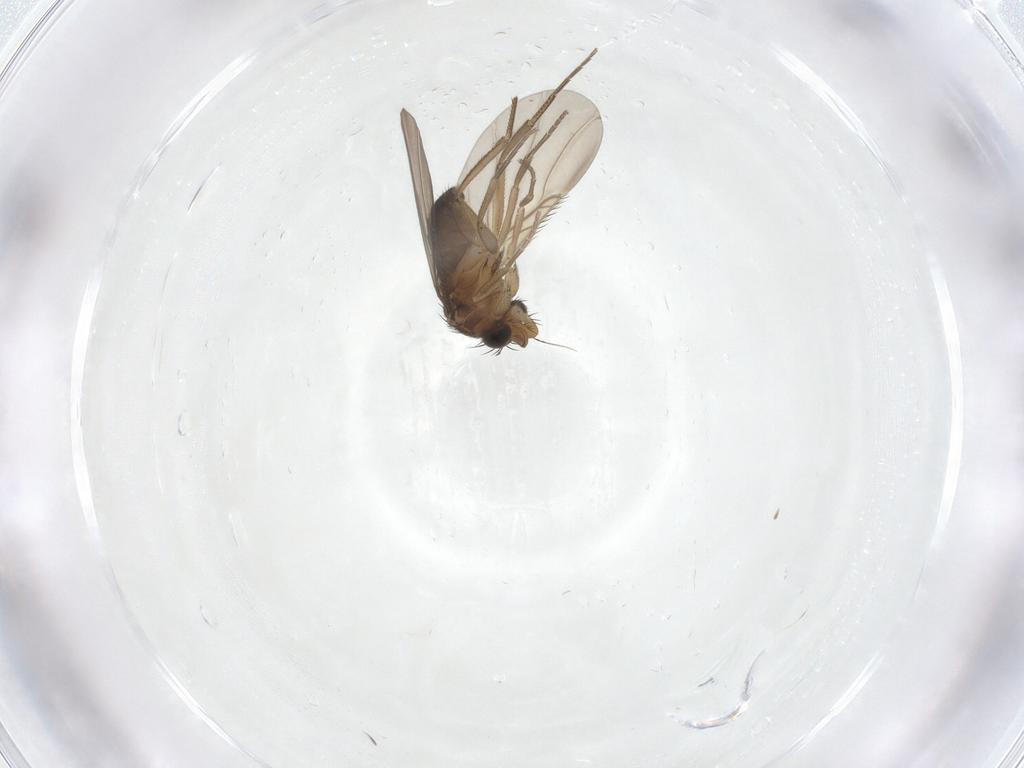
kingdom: Animalia
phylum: Arthropoda
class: Insecta
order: Diptera
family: Phoridae
